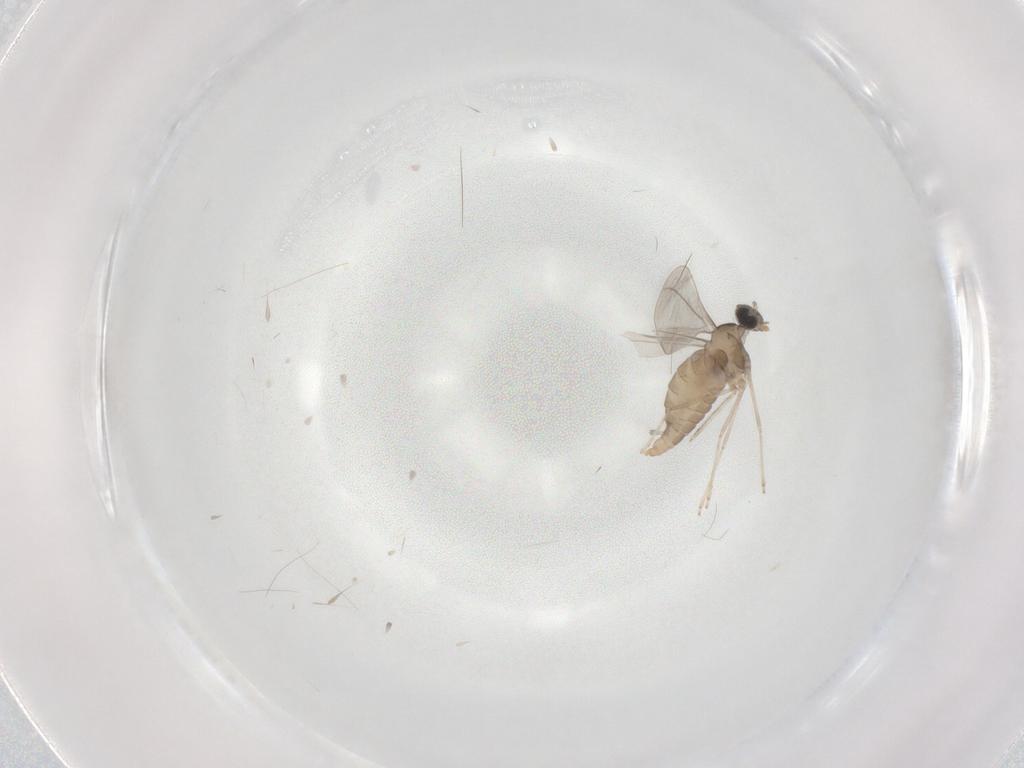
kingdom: Animalia
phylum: Arthropoda
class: Insecta
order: Diptera
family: Cecidomyiidae
